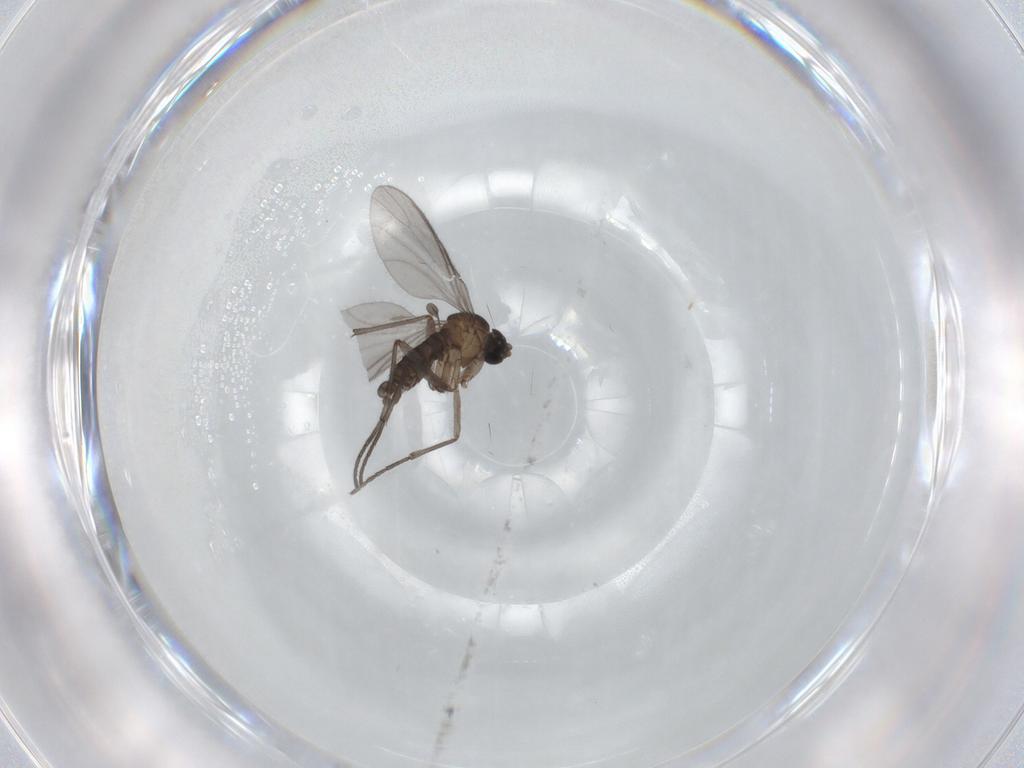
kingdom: Animalia
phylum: Arthropoda
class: Insecta
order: Diptera
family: Sciaridae
